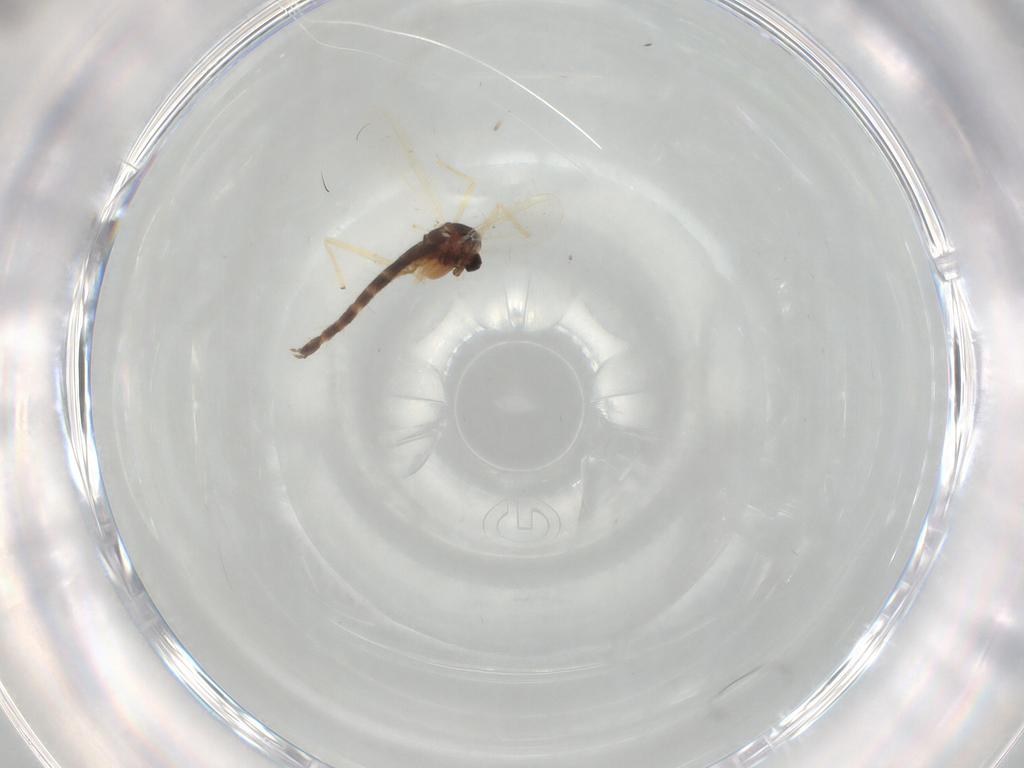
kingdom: Animalia
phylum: Arthropoda
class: Insecta
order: Diptera
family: Chironomidae
